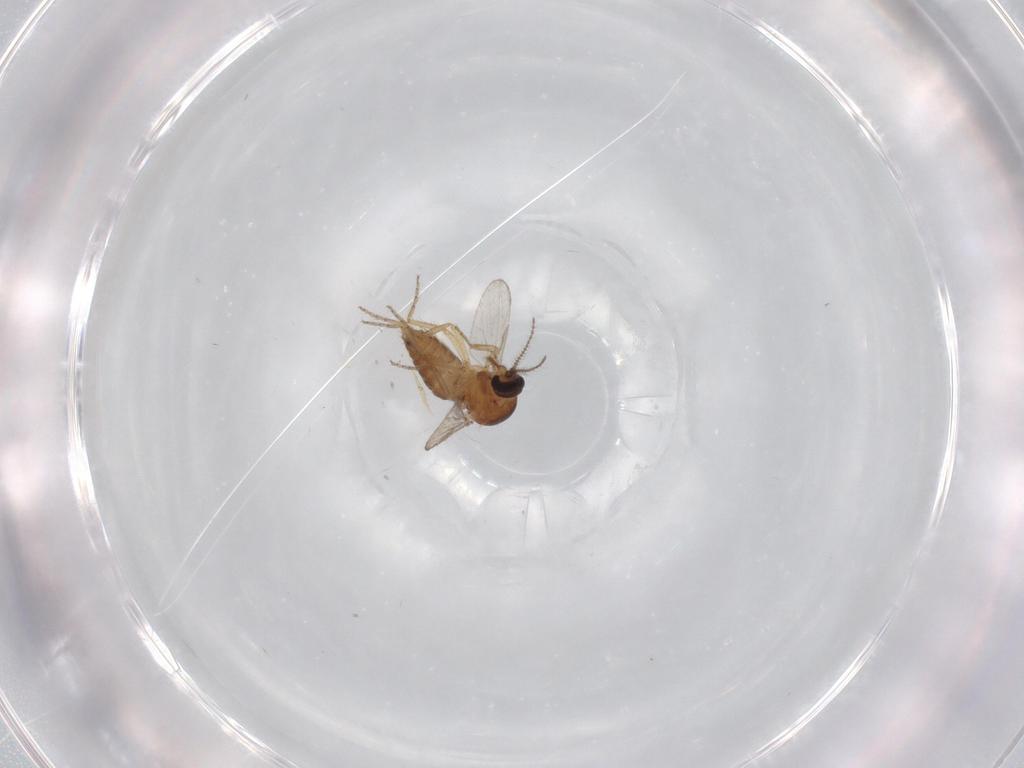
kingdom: Animalia
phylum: Arthropoda
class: Insecta
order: Diptera
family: Ceratopogonidae
